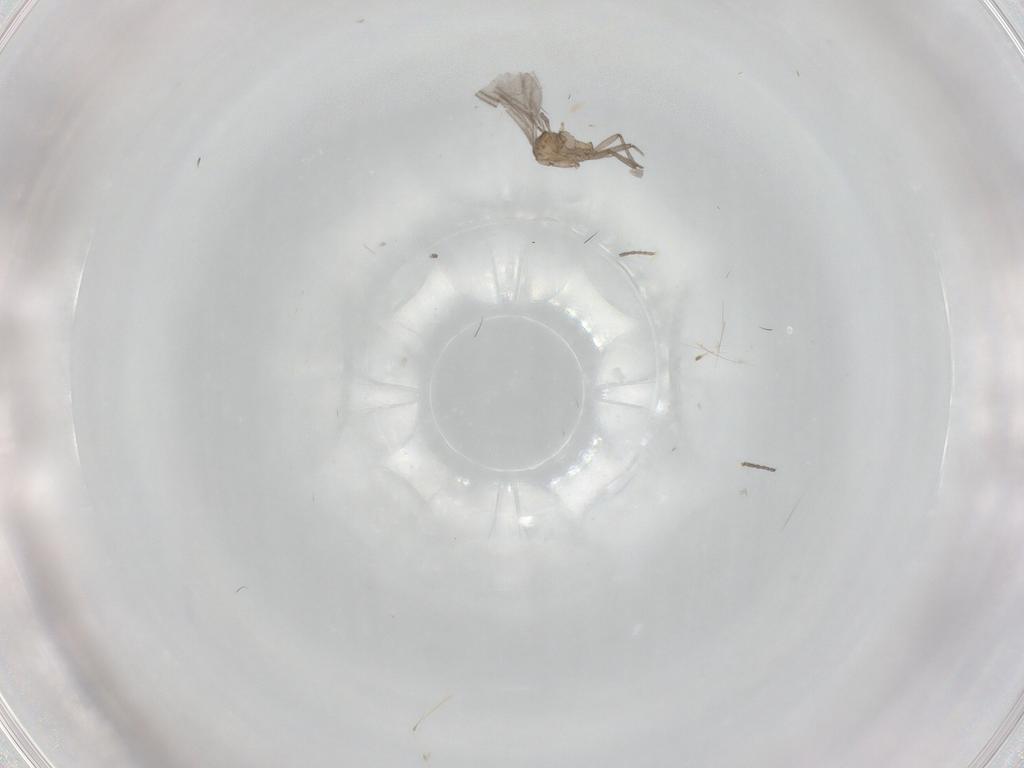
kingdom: Animalia
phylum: Arthropoda
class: Insecta
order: Diptera
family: Sciaridae
